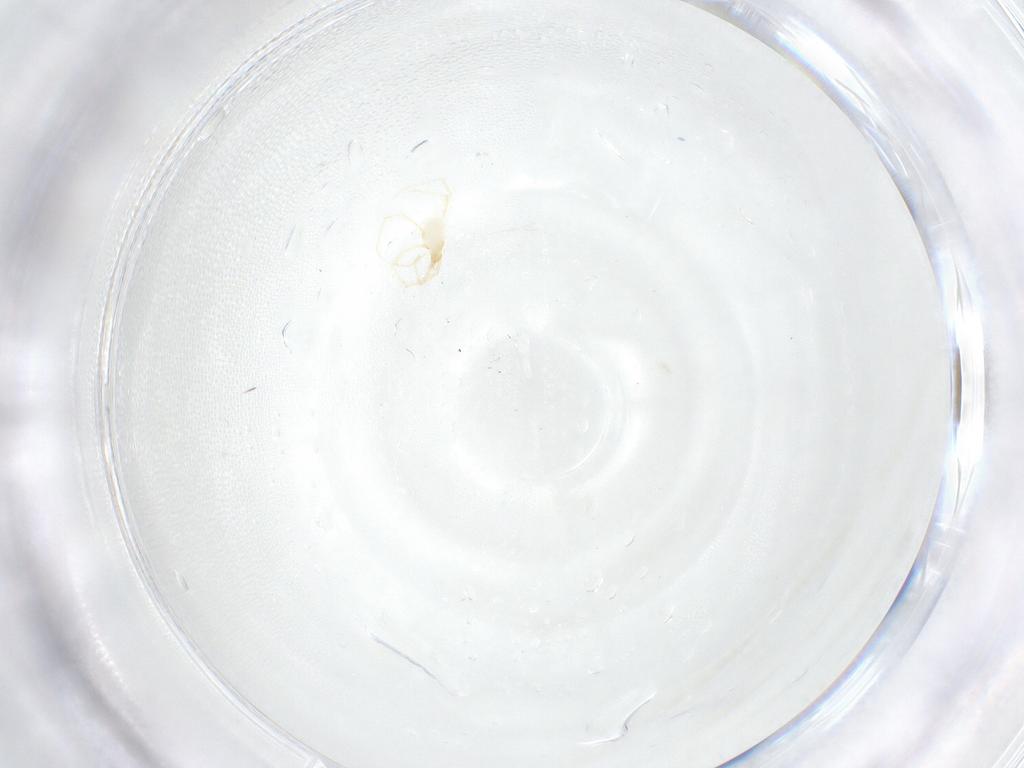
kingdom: Animalia
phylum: Arthropoda
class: Arachnida
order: Trombidiformes
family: Erythraeidae
